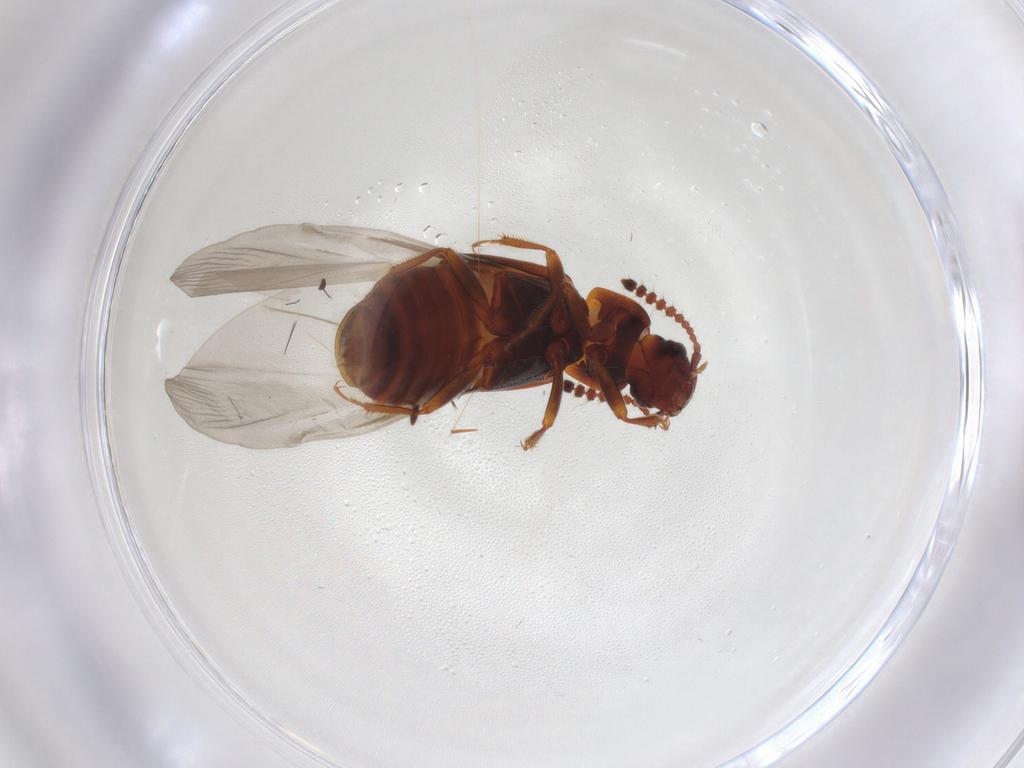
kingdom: Animalia
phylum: Arthropoda
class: Insecta
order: Coleoptera
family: Staphylinidae
